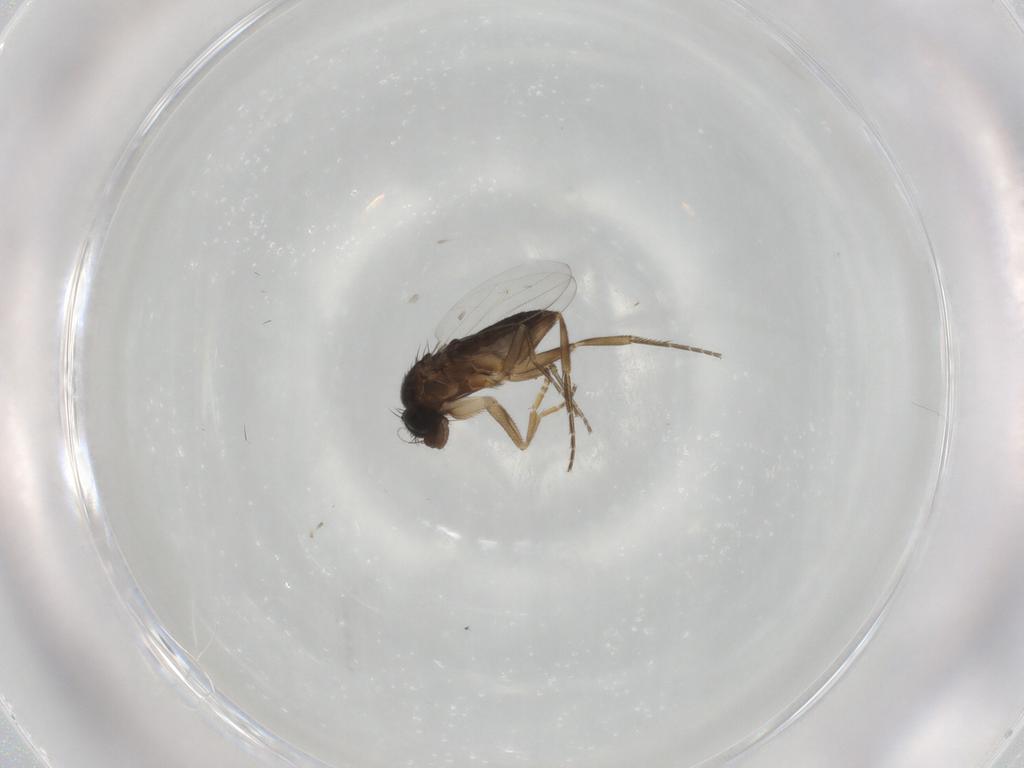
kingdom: Animalia
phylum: Arthropoda
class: Insecta
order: Diptera
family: Phoridae
